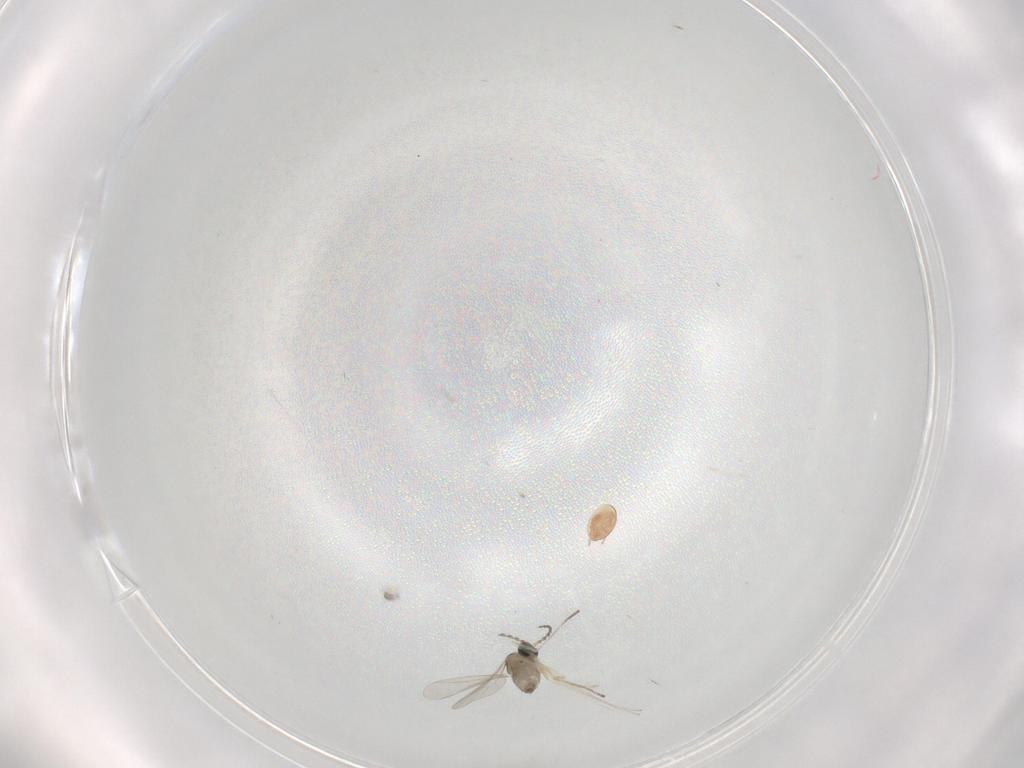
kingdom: Animalia
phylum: Arthropoda
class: Insecta
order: Diptera
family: Cecidomyiidae
